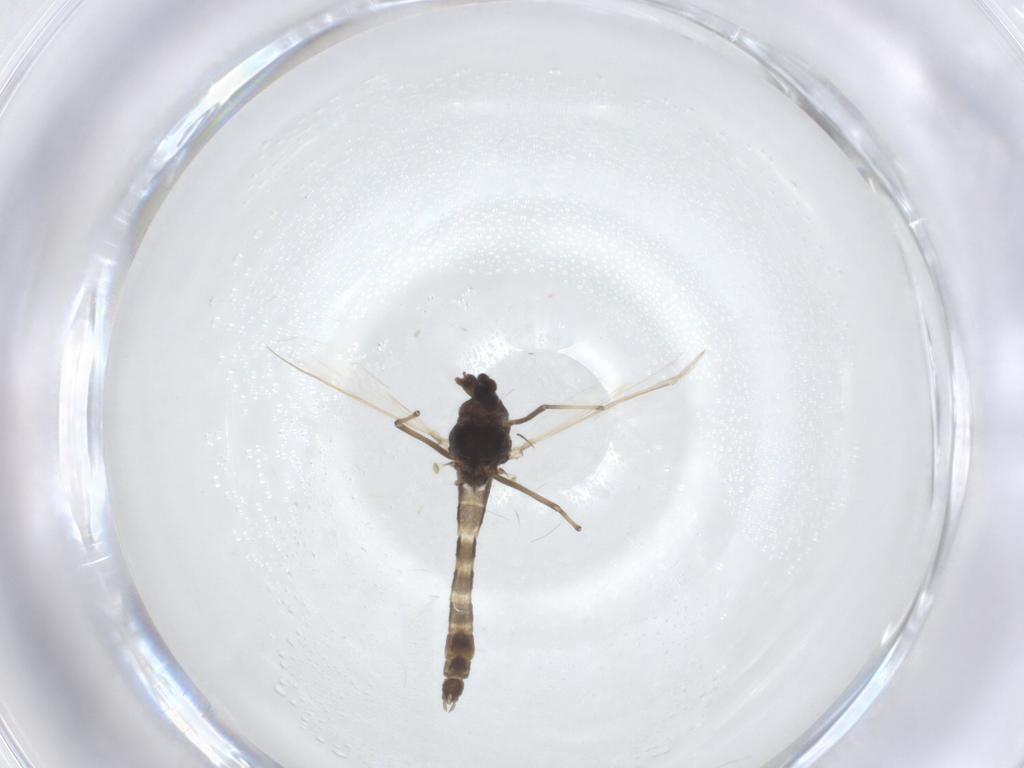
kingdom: Animalia
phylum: Arthropoda
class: Insecta
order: Diptera
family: Chironomidae
